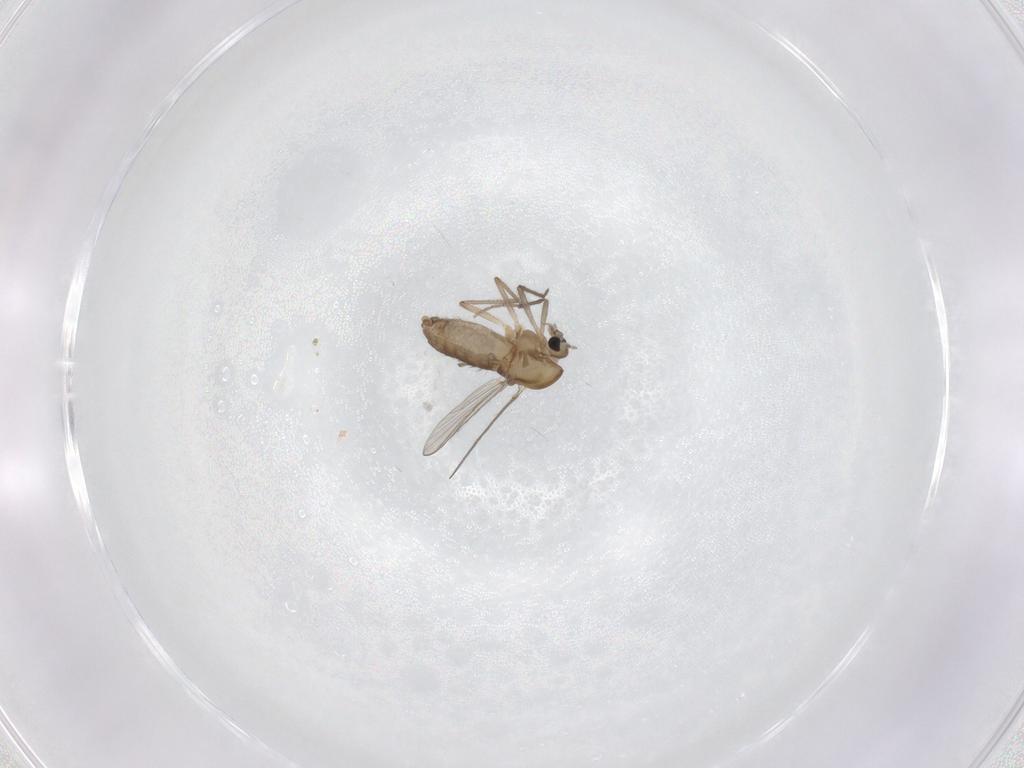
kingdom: Animalia
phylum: Arthropoda
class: Insecta
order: Diptera
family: Chironomidae
